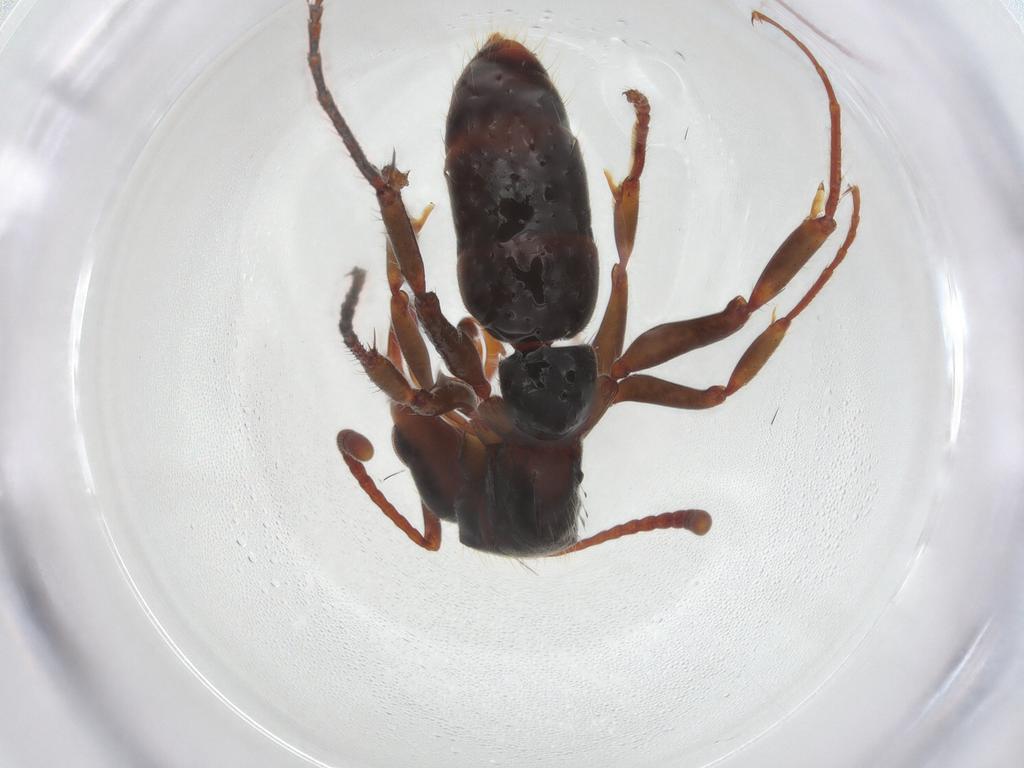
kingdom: Animalia
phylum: Arthropoda
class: Insecta
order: Hymenoptera
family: Formicidae
